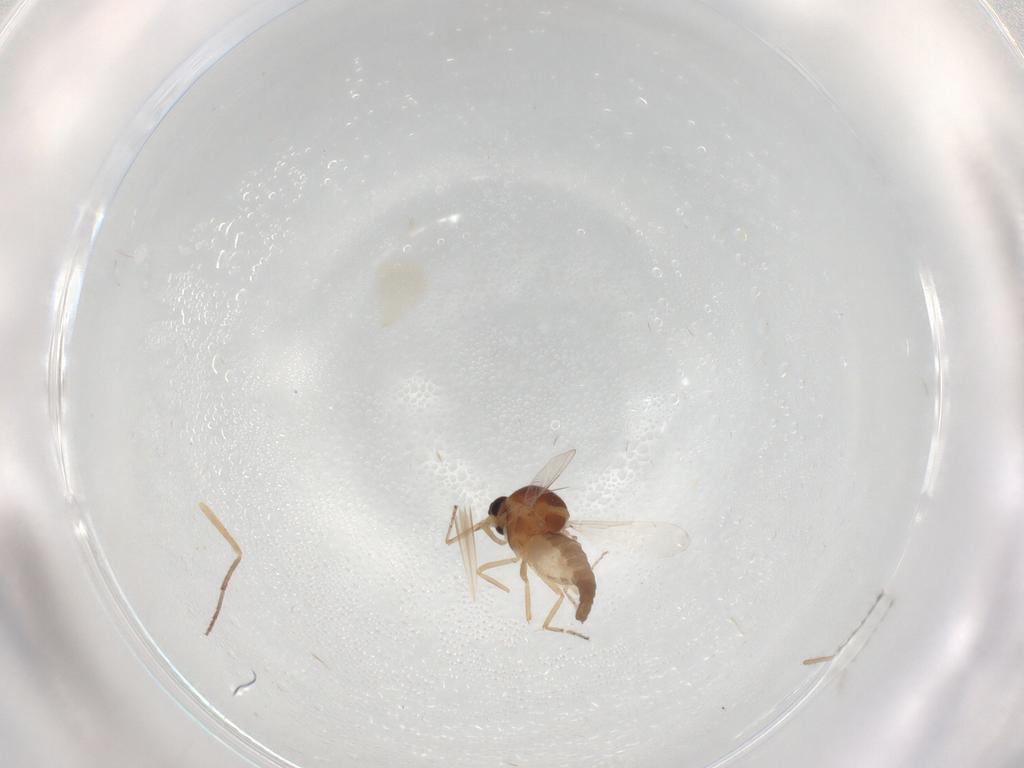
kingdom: Animalia
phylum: Arthropoda
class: Insecta
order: Diptera
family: Ceratopogonidae
